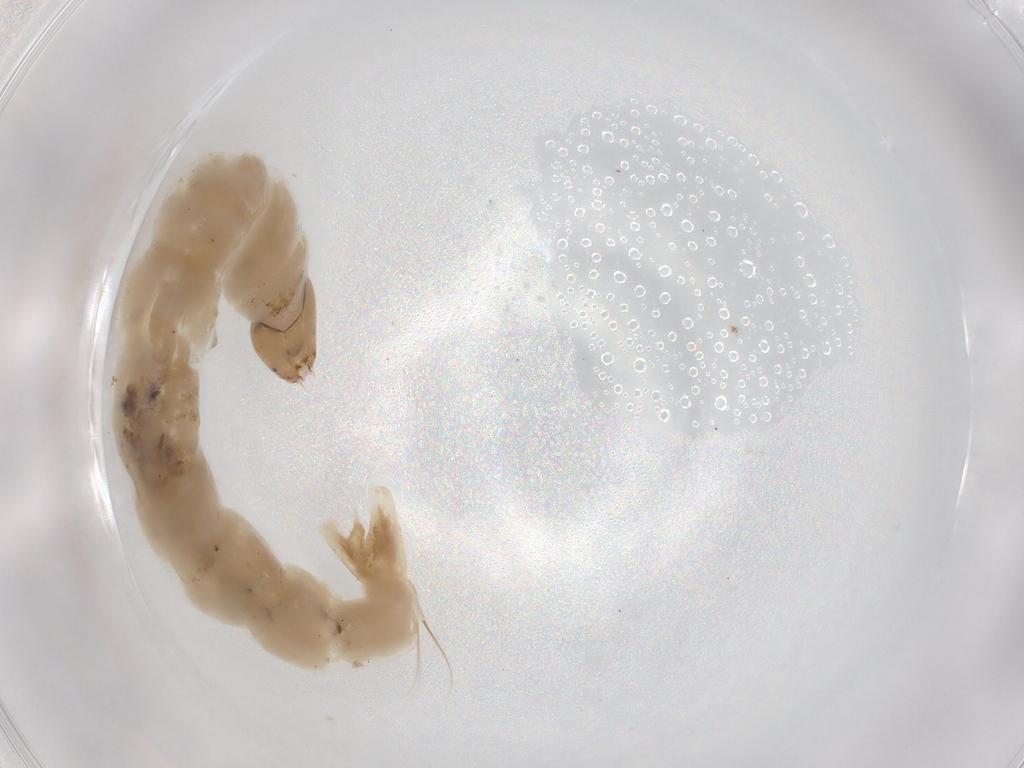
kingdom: Animalia
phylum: Arthropoda
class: Insecta
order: Diptera
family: Chironomidae
